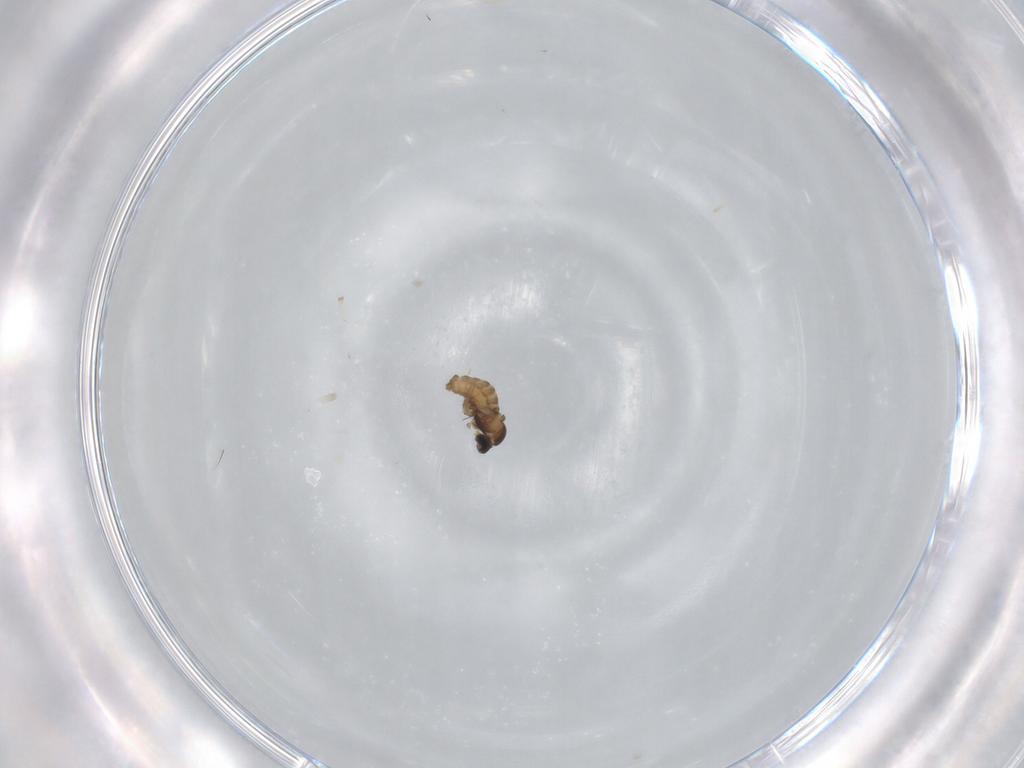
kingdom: Animalia
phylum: Arthropoda
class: Insecta
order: Diptera
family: Cecidomyiidae
